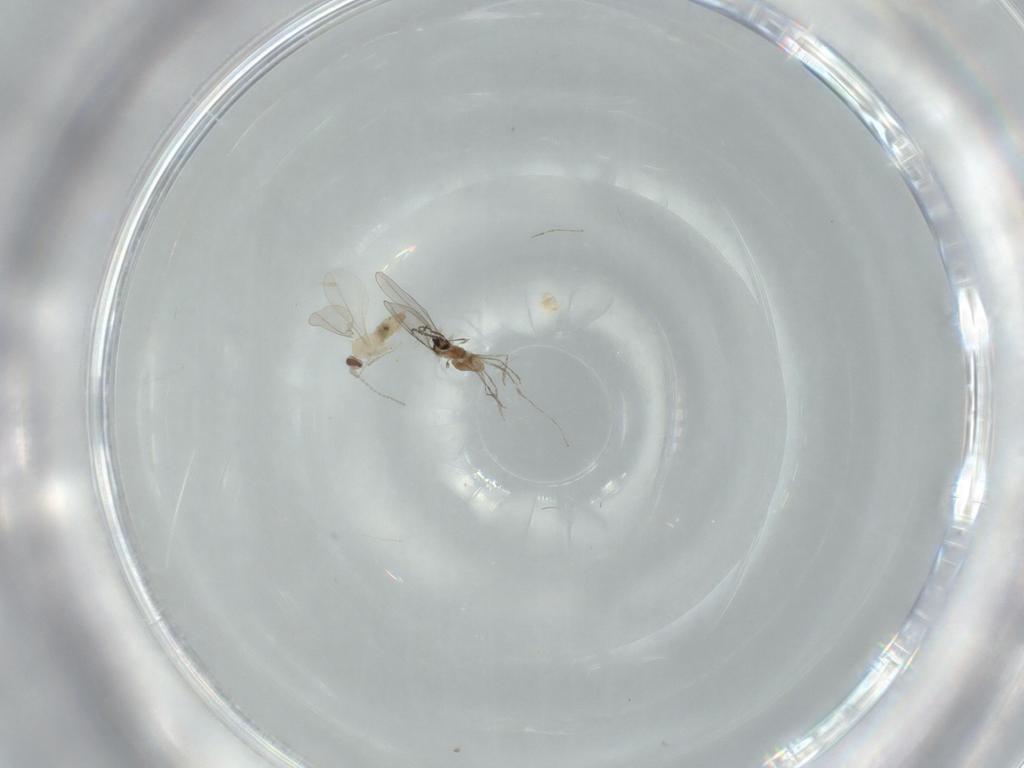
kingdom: Animalia
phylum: Arthropoda
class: Insecta
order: Diptera
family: Cecidomyiidae
